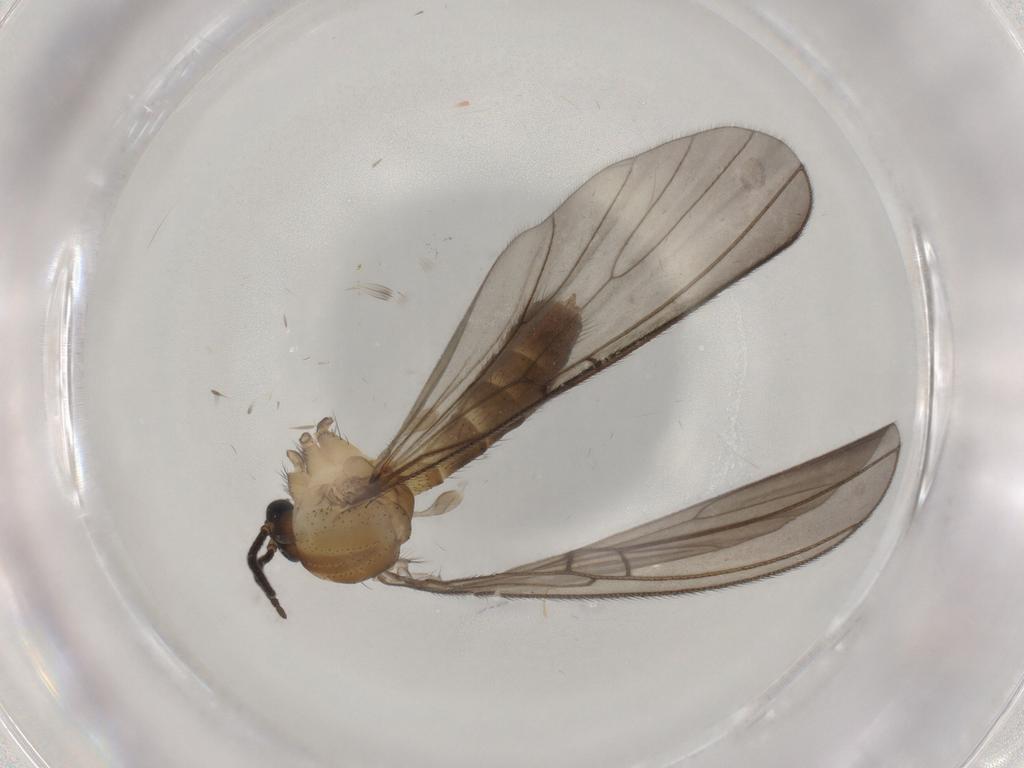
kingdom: Animalia
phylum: Arthropoda
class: Insecta
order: Diptera
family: Mycetophilidae
